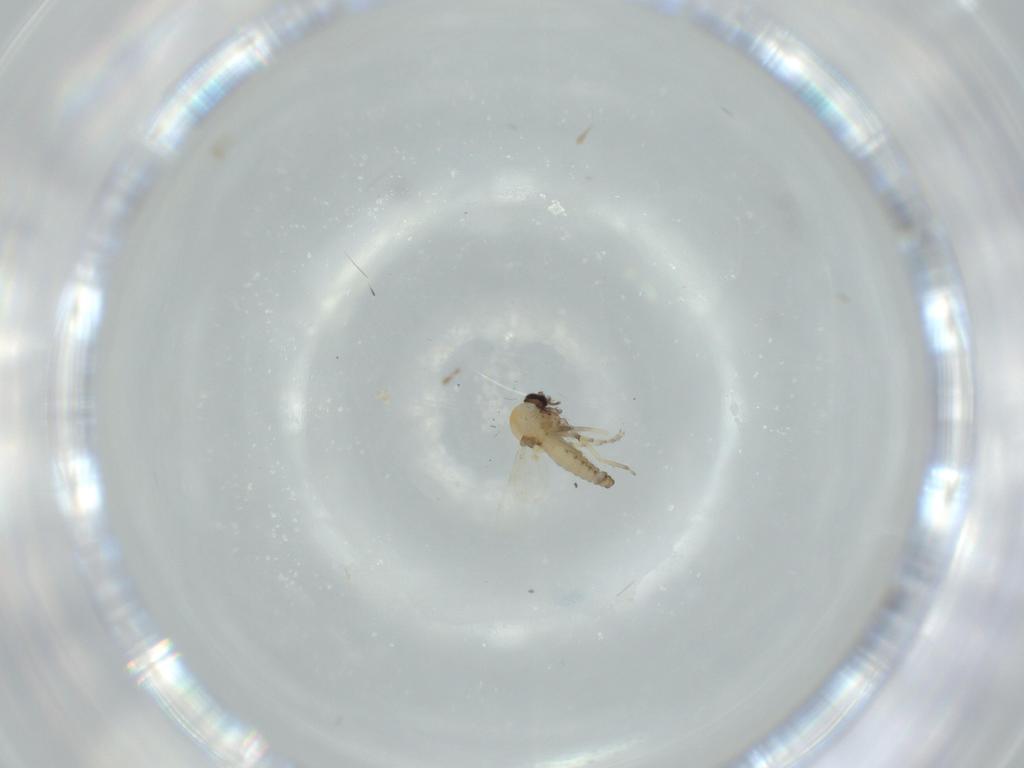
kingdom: Animalia
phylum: Arthropoda
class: Insecta
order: Diptera
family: Ceratopogonidae
